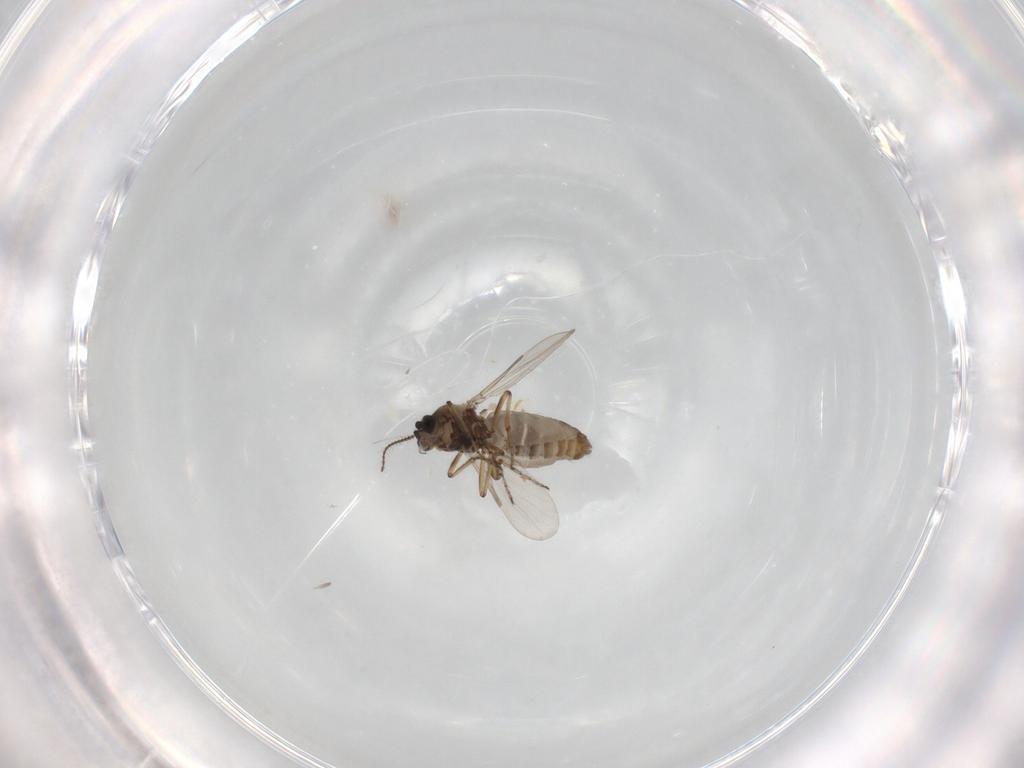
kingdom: Animalia
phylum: Arthropoda
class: Insecta
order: Diptera
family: Ceratopogonidae
